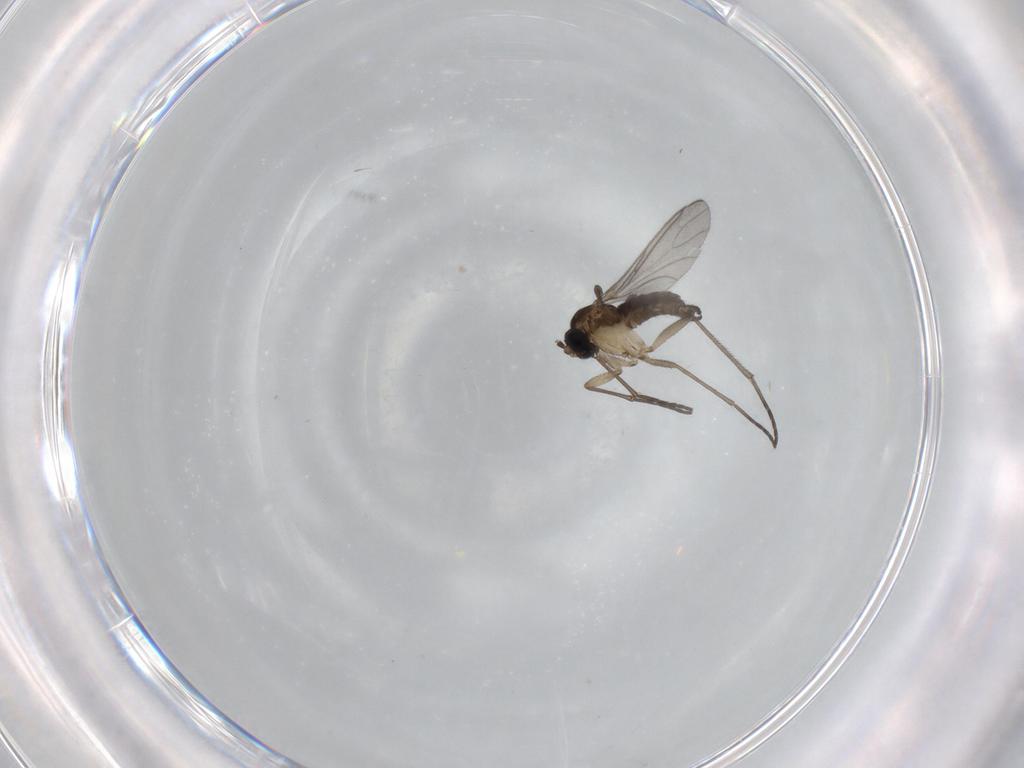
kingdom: Animalia
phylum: Arthropoda
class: Insecta
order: Diptera
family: Sciaridae
